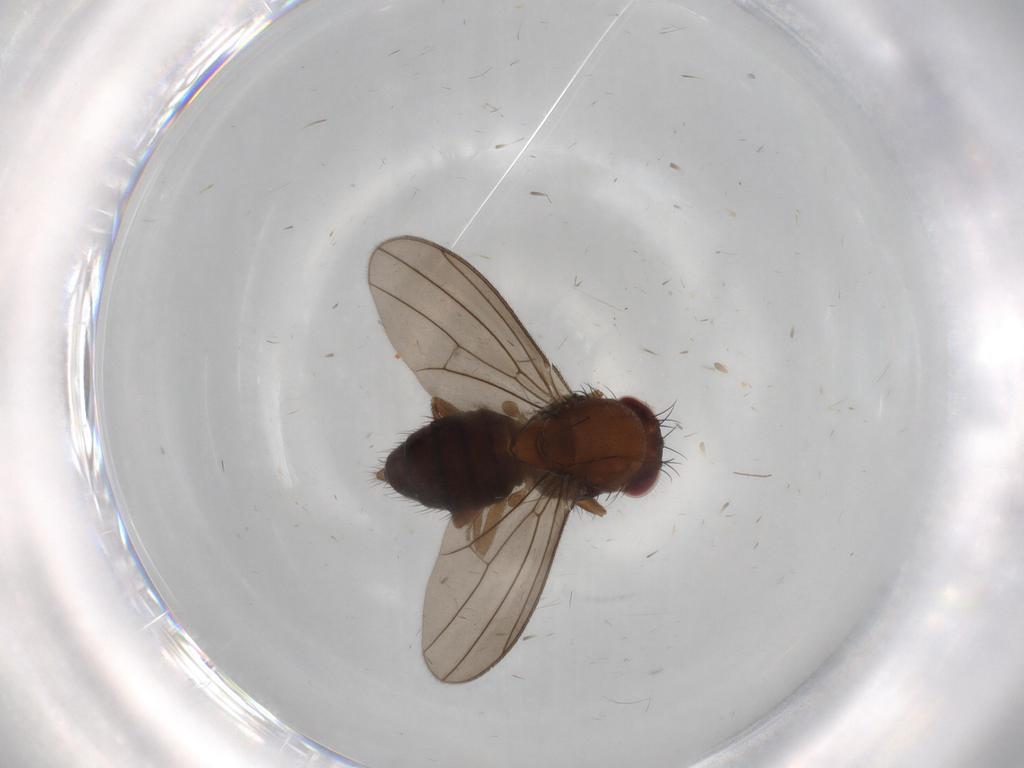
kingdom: Animalia
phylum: Arthropoda
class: Insecta
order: Diptera
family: Drosophilidae
